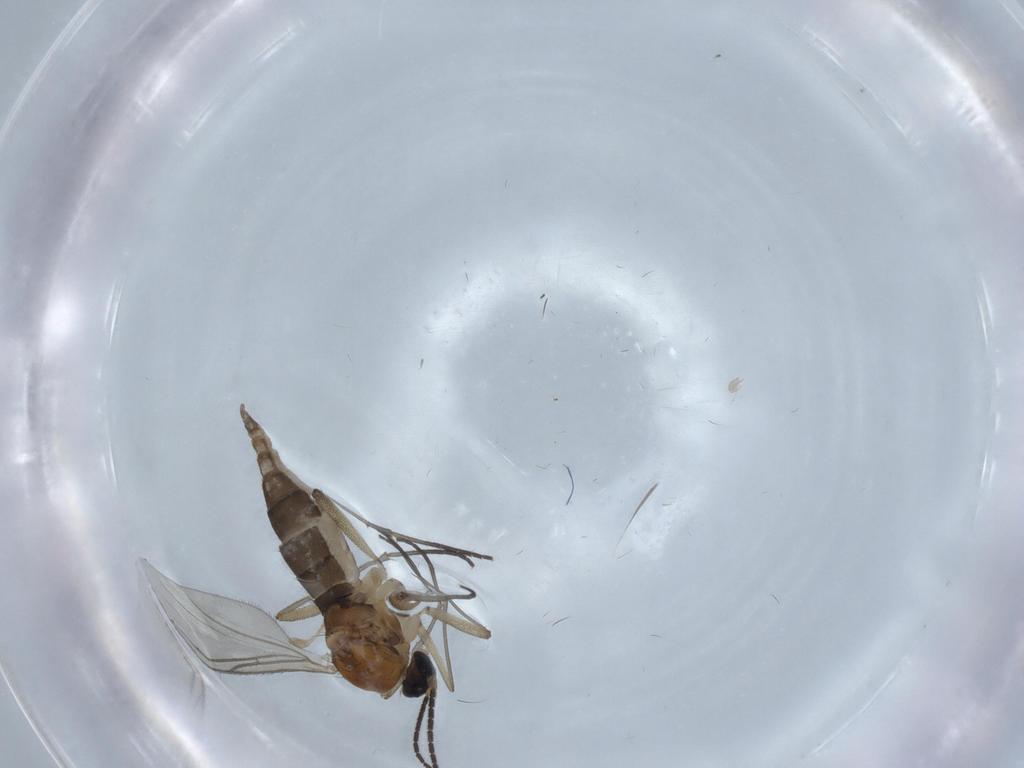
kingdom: Animalia
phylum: Arthropoda
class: Insecta
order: Diptera
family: Sciaridae
